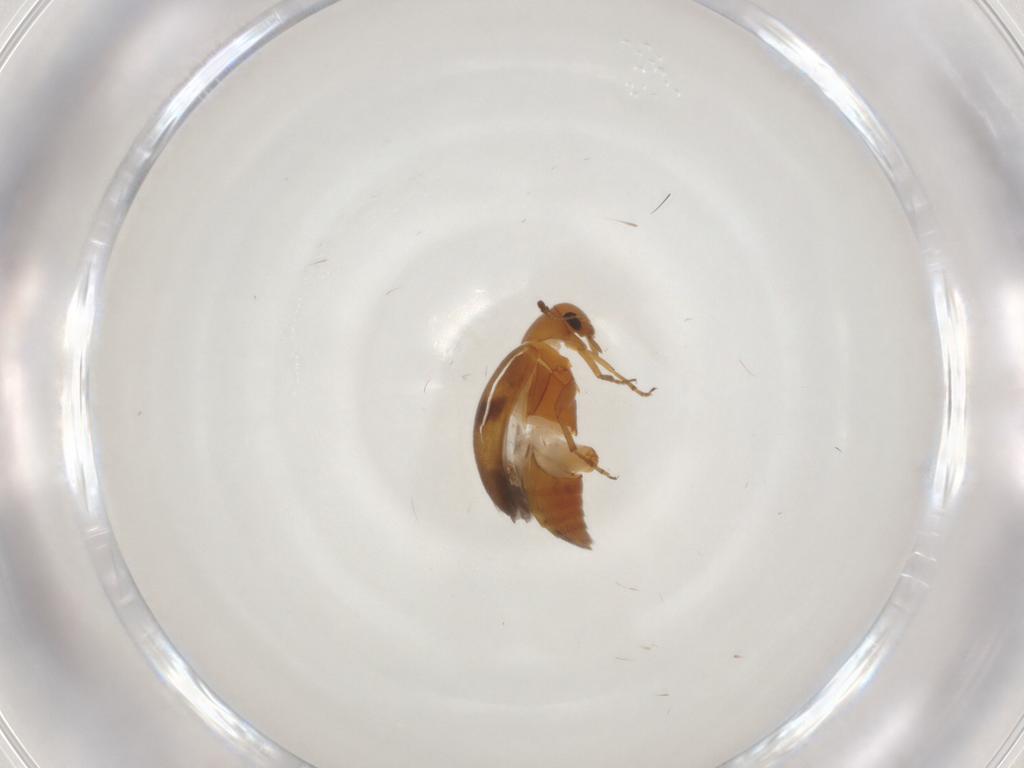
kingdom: Animalia
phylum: Arthropoda
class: Insecta
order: Coleoptera
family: Scraptiidae
